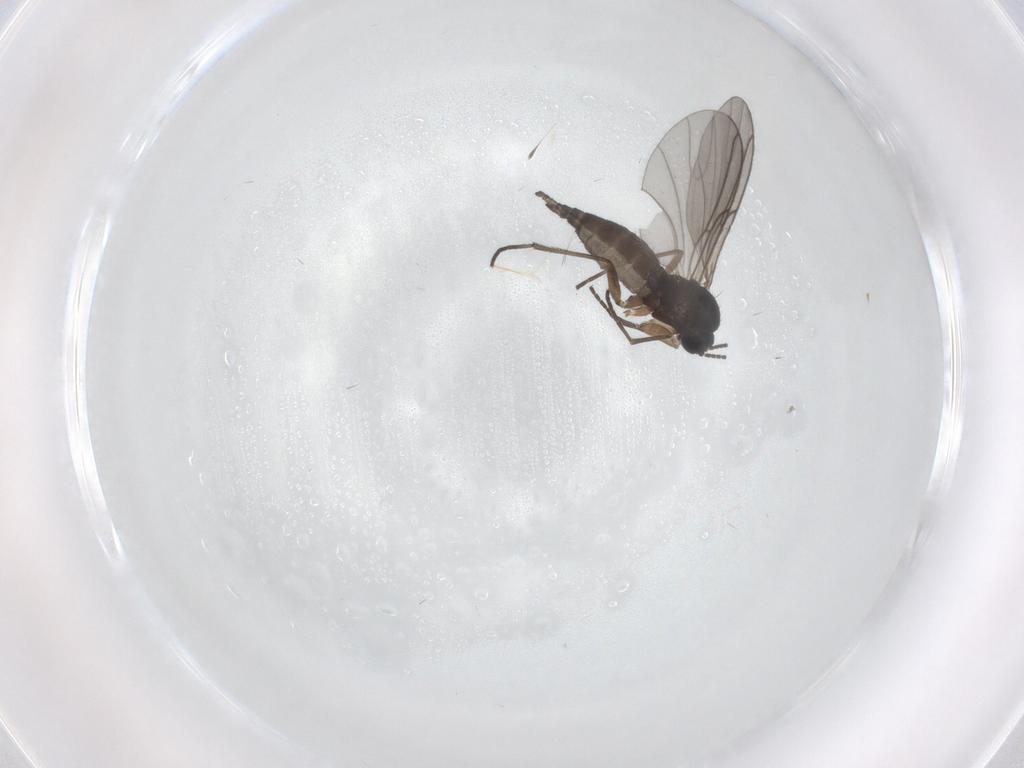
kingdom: Animalia
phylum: Arthropoda
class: Insecta
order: Diptera
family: Sciaridae
